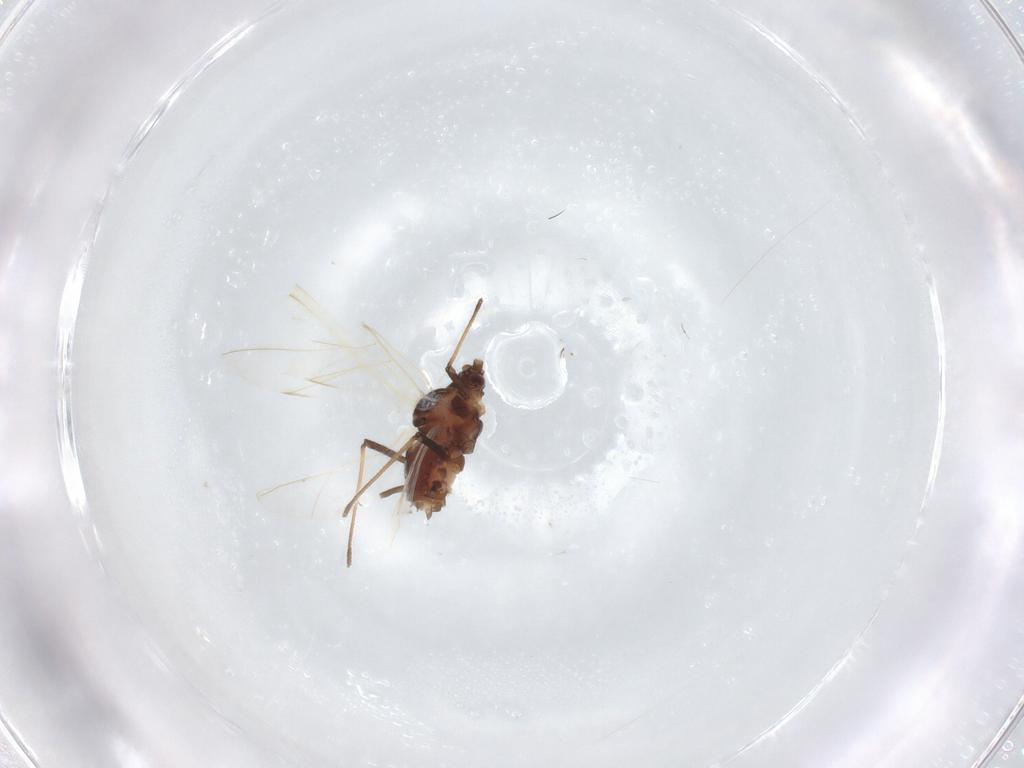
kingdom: Animalia
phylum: Arthropoda
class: Insecta
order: Hemiptera
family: Aphididae
